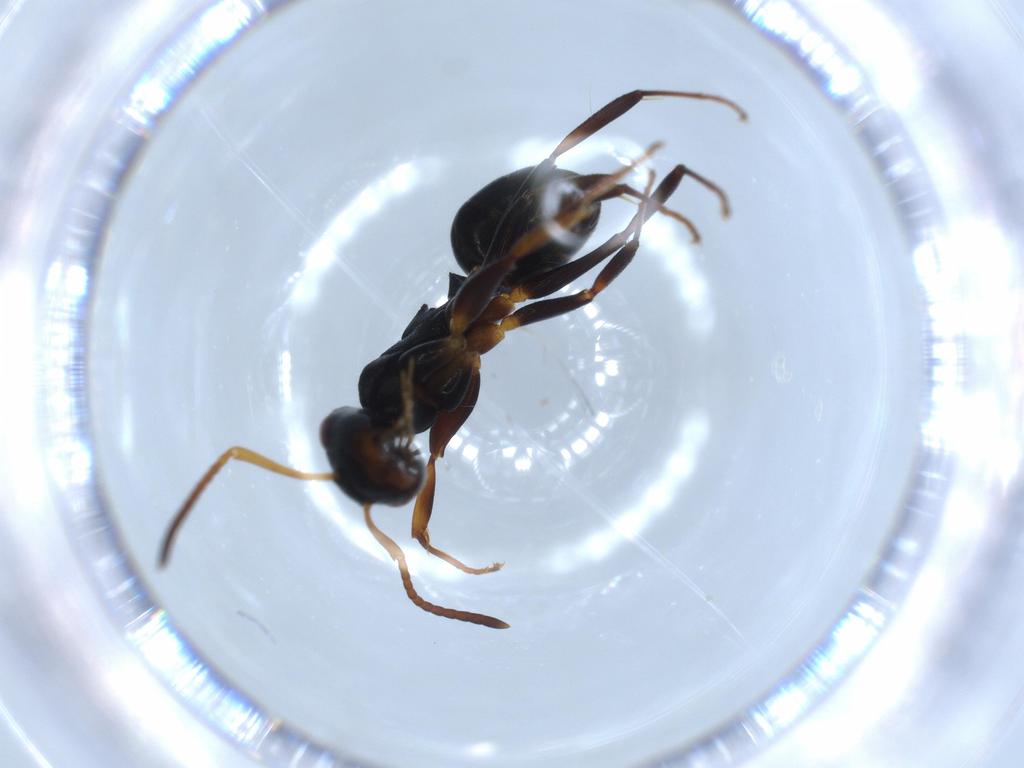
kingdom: Animalia
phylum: Arthropoda
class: Insecta
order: Hymenoptera
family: Formicidae
